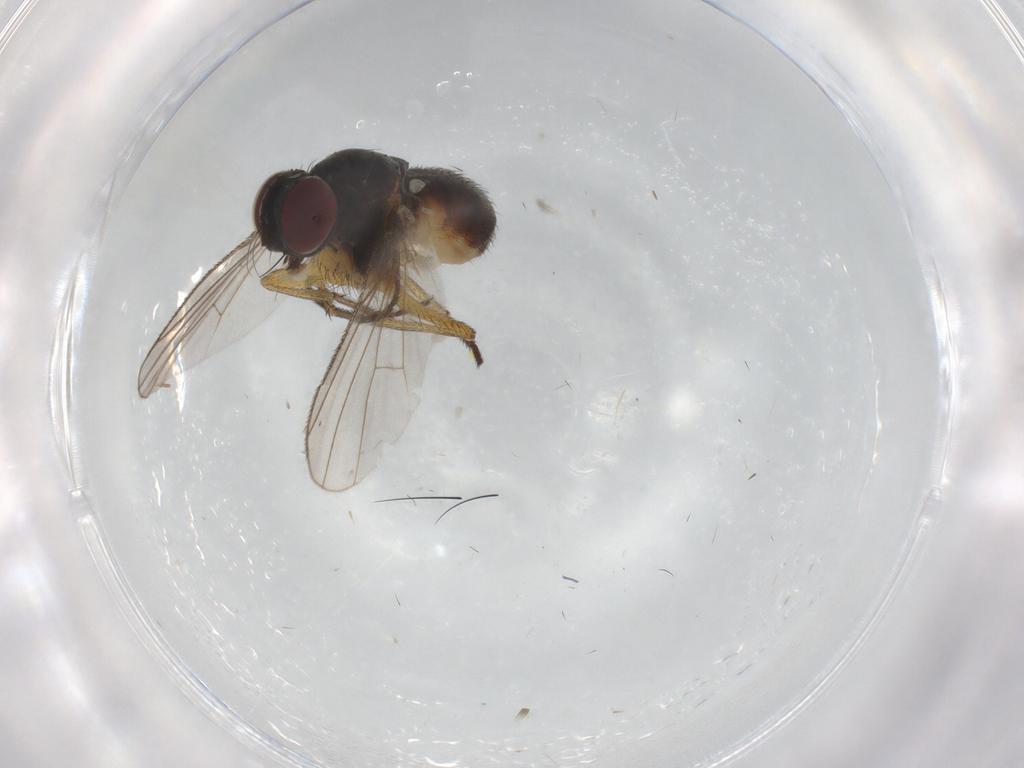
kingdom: Animalia
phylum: Arthropoda
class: Insecta
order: Diptera
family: Muscidae
